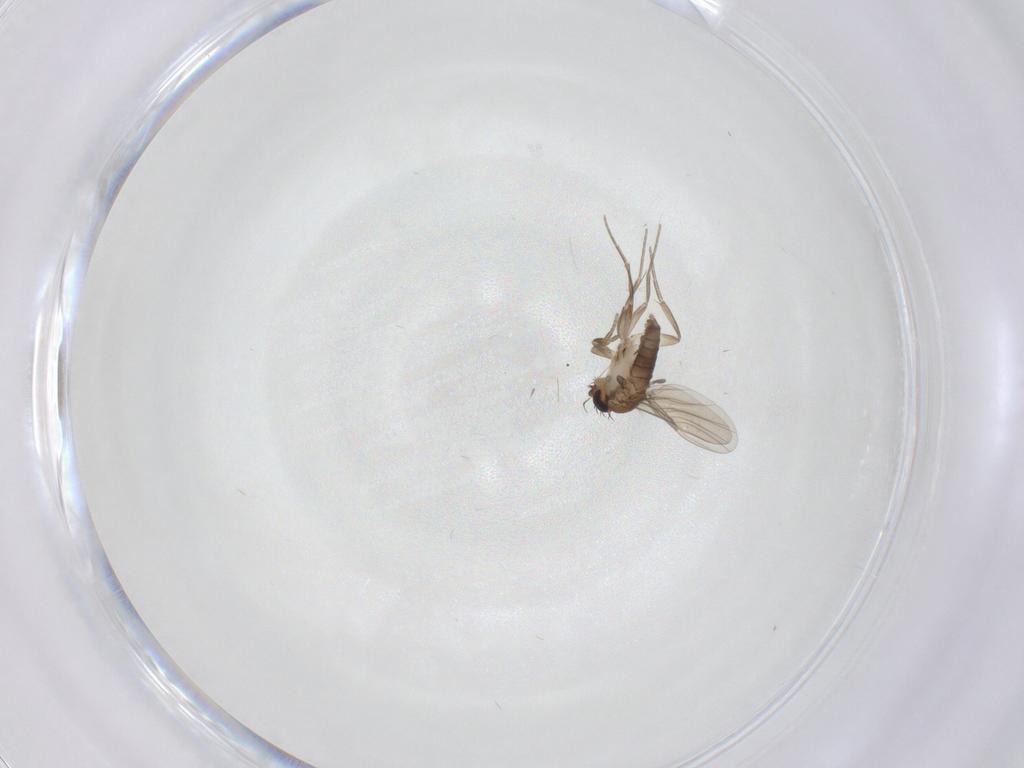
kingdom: Animalia
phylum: Arthropoda
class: Insecta
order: Diptera
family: Phoridae
